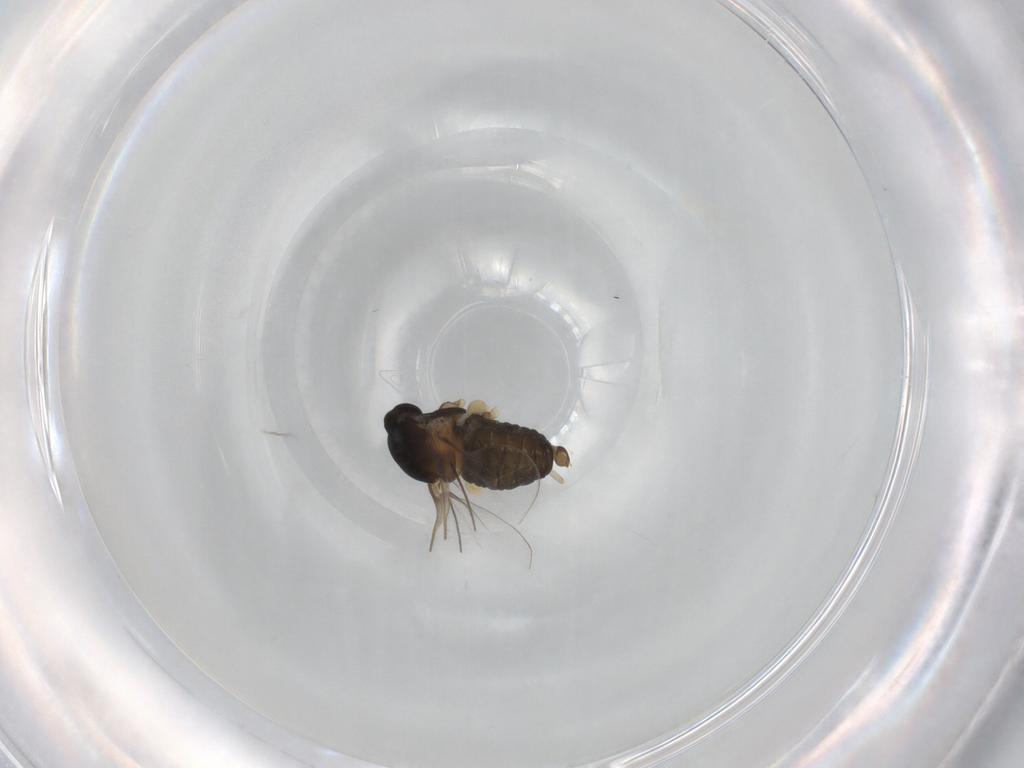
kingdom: Animalia
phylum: Arthropoda
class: Insecta
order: Diptera
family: Cecidomyiidae
